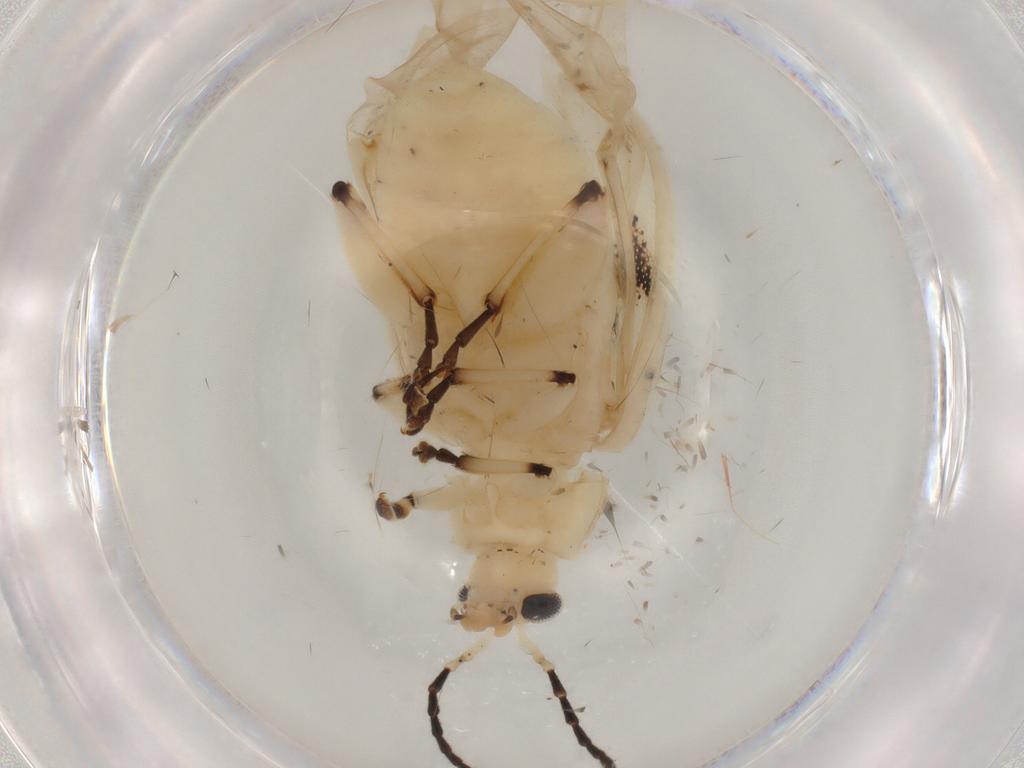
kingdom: Animalia
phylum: Arthropoda
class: Insecta
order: Coleoptera
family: Chrysomelidae
